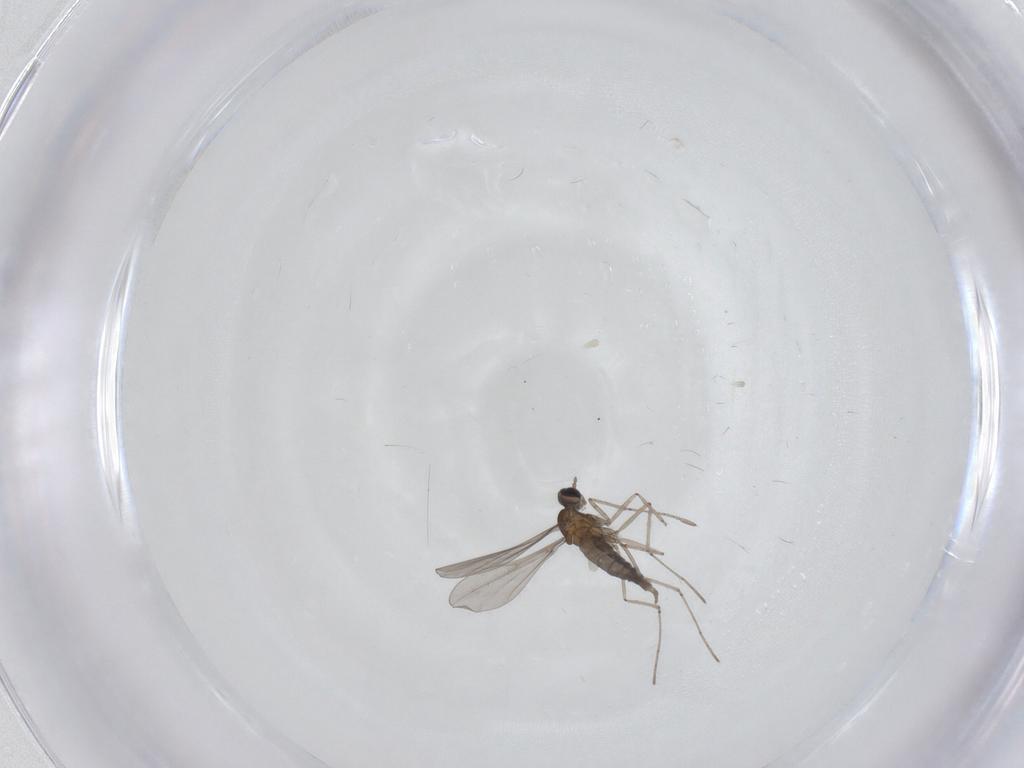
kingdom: Animalia
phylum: Arthropoda
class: Insecta
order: Diptera
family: Cecidomyiidae
